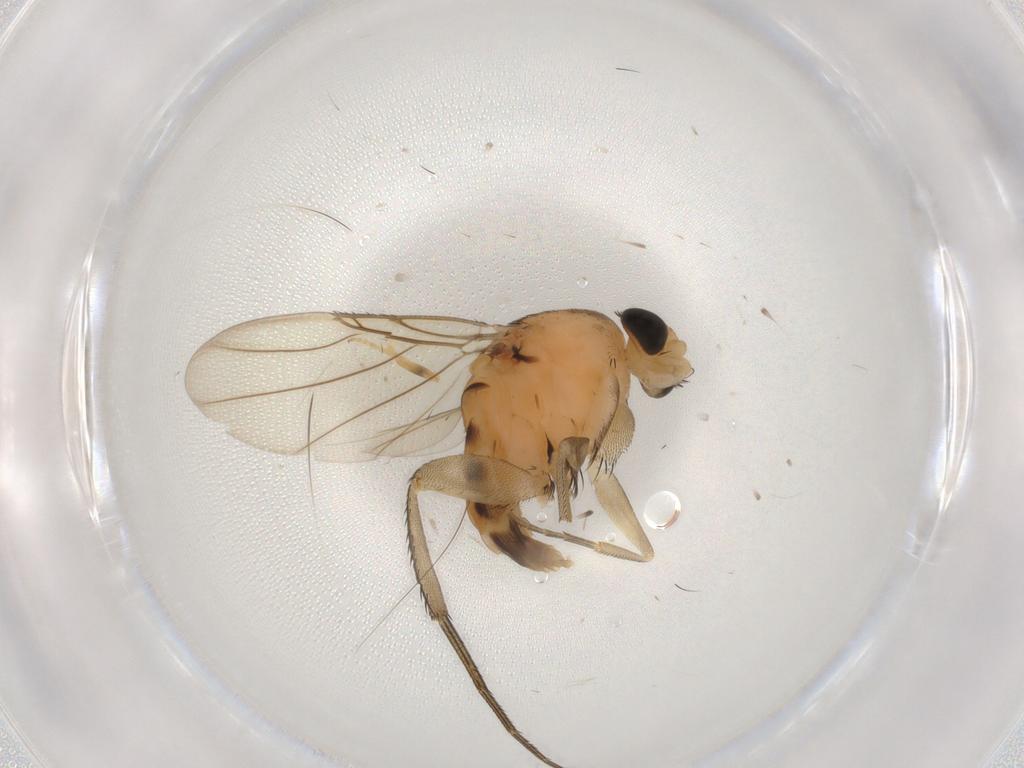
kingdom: Animalia
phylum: Arthropoda
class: Insecta
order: Diptera
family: Chloropidae
